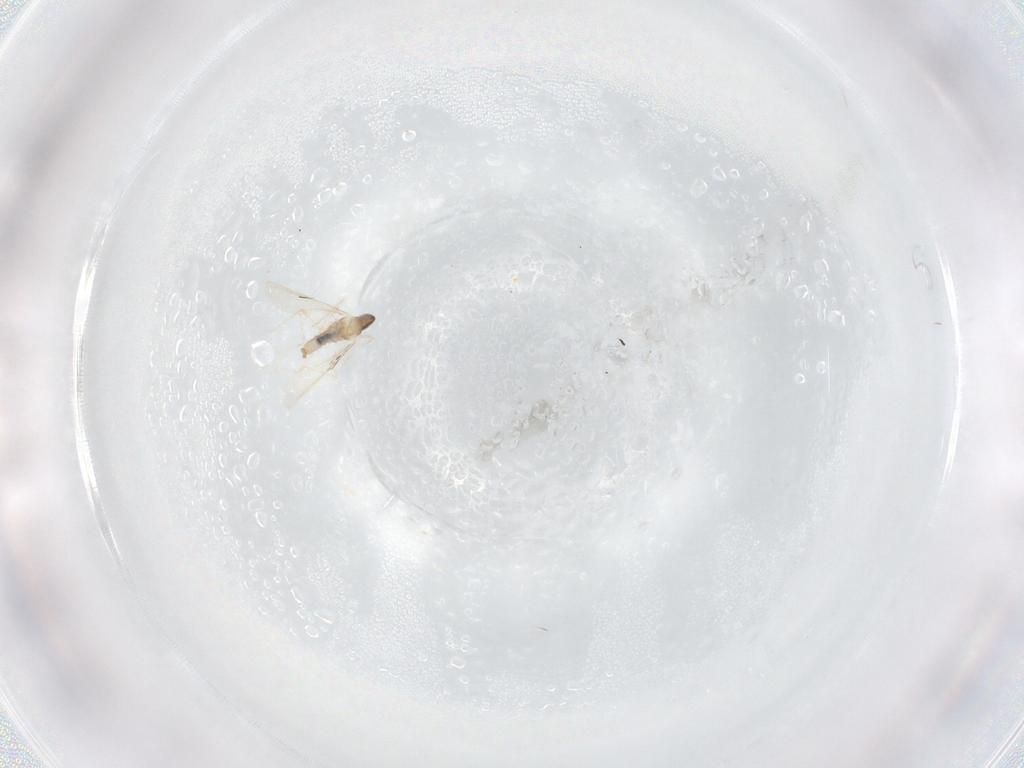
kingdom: Animalia
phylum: Arthropoda
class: Insecta
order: Diptera
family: Cecidomyiidae
